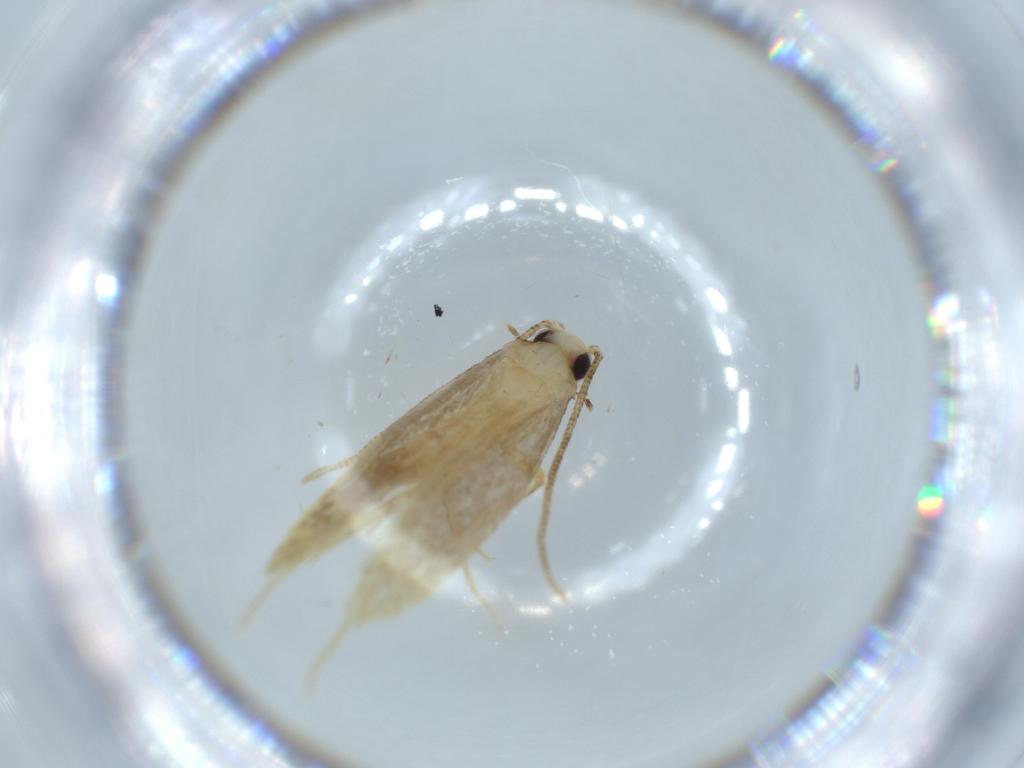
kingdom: Animalia
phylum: Arthropoda
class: Insecta
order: Lepidoptera
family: Tineidae
